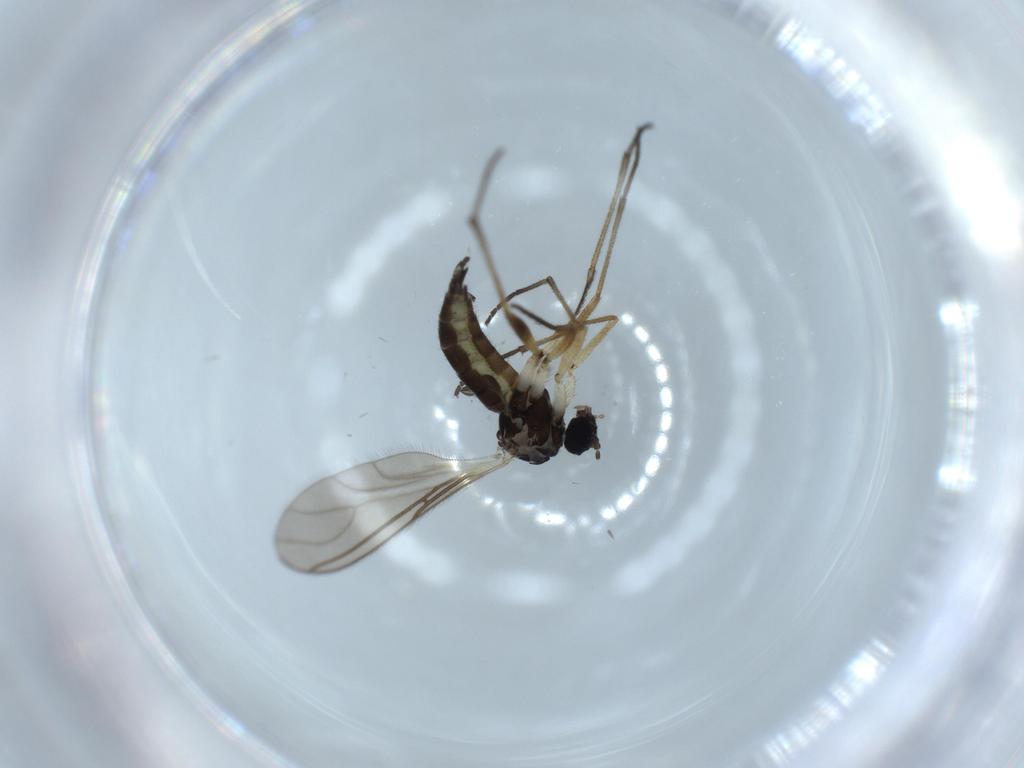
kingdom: Animalia
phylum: Arthropoda
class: Insecta
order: Diptera
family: Sciaridae
